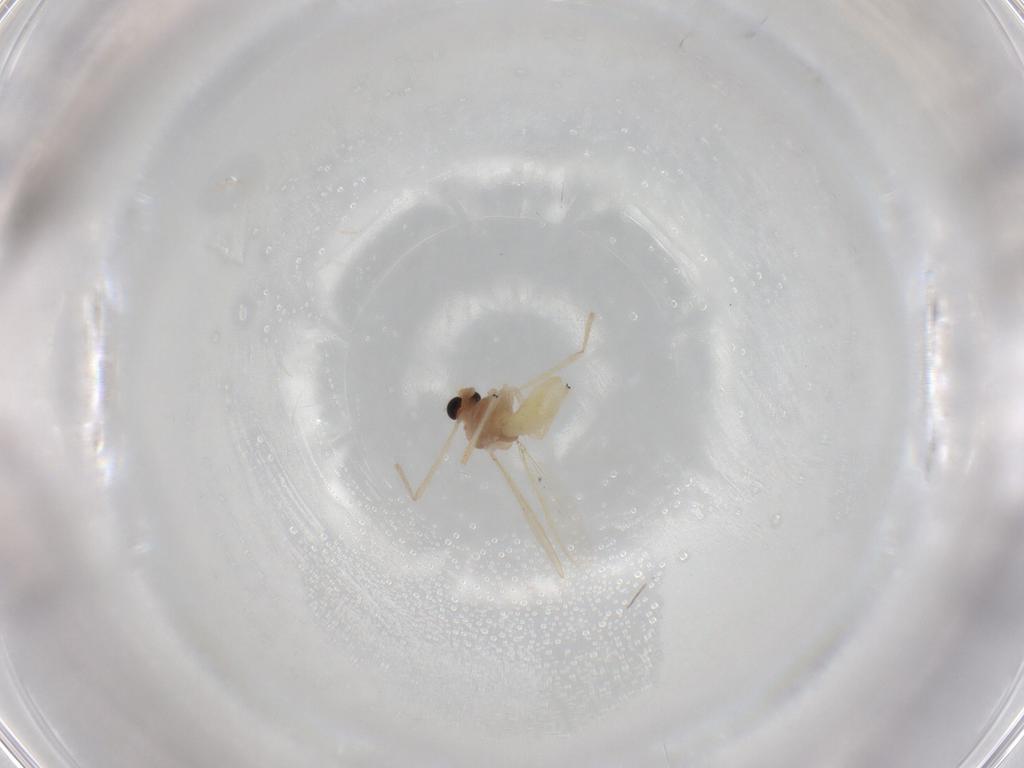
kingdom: Animalia
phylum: Arthropoda
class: Insecta
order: Diptera
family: Chironomidae
